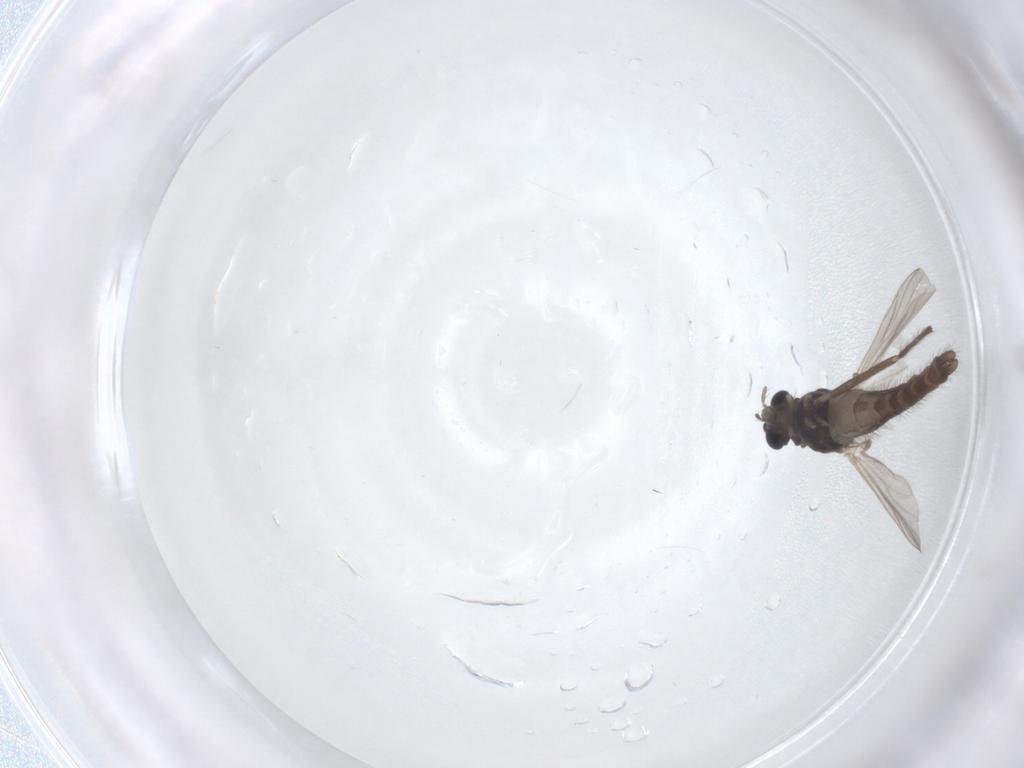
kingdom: Animalia
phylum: Arthropoda
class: Insecta
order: Diptera
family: Chironomidae
